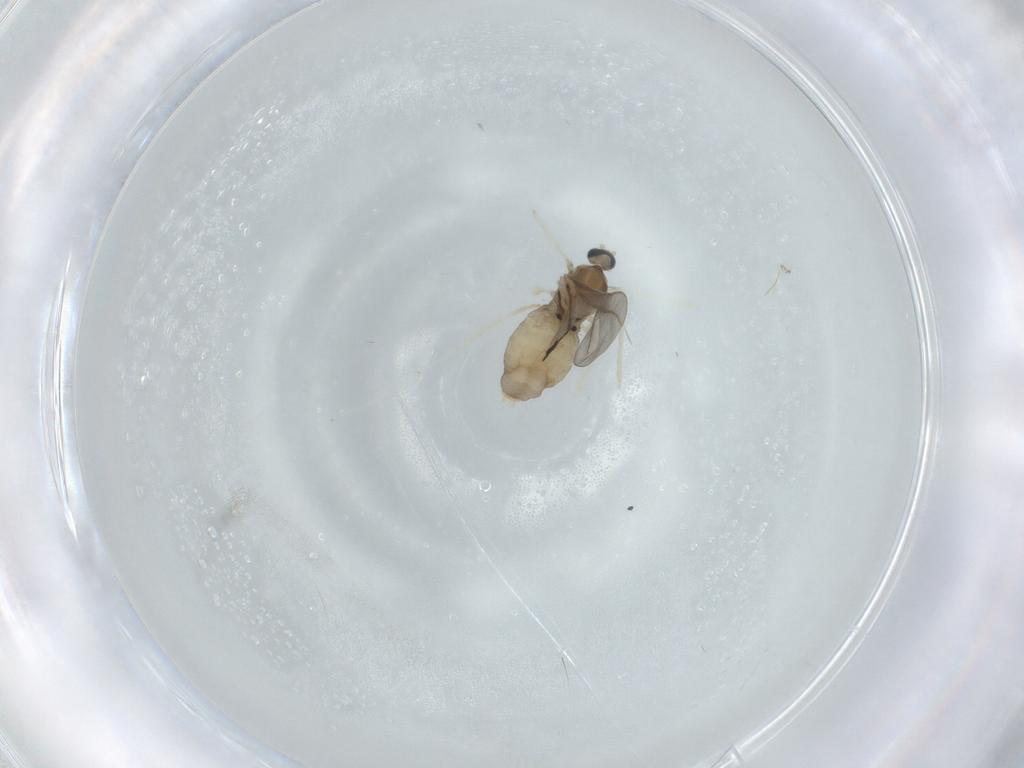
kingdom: Animalia
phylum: Arthropoda
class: Insecta
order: Diptera
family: Cecidomyiidae
